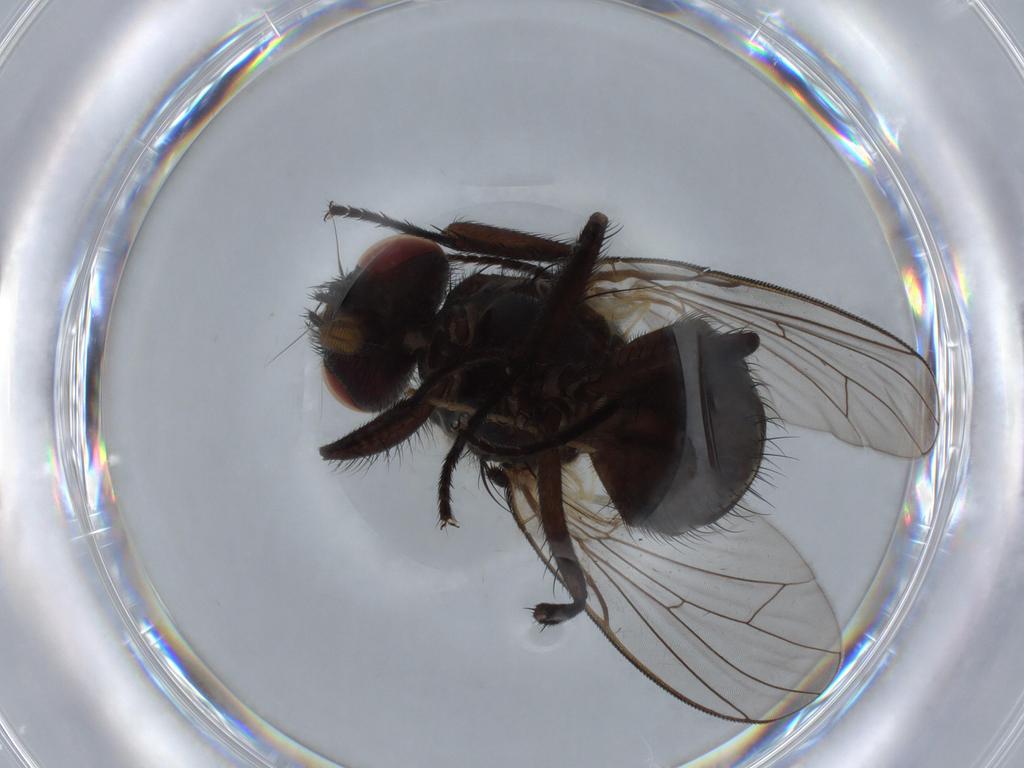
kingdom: Animalia
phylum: Arthropoda
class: Insecta
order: Diptera
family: Muscidae
